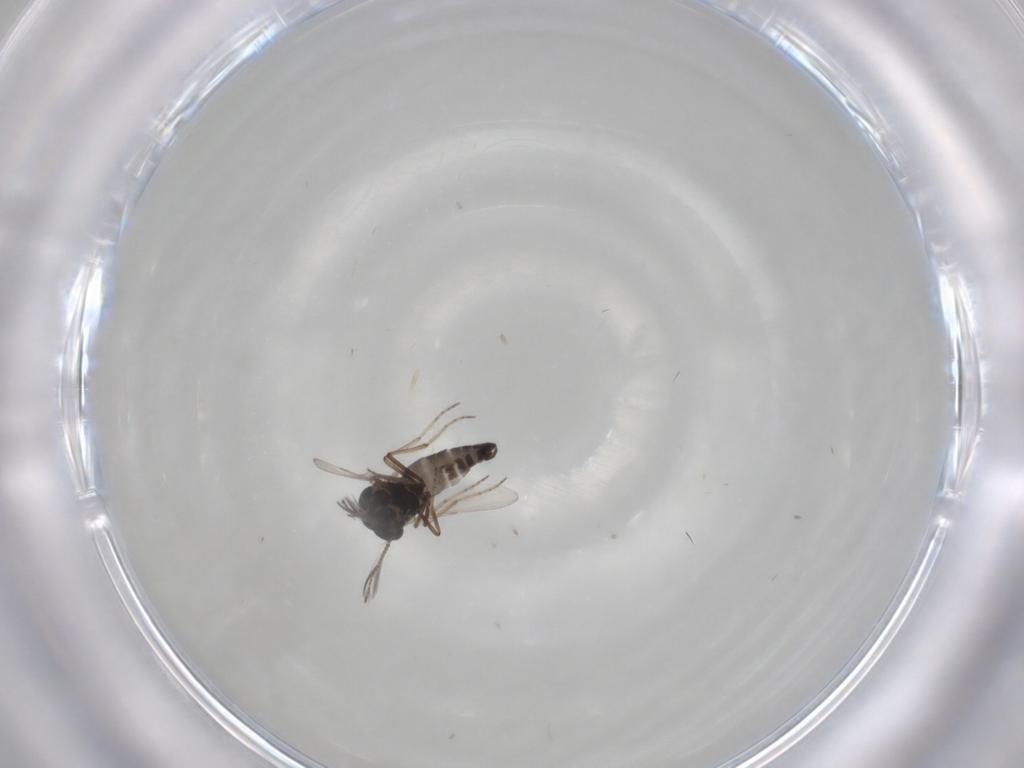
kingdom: Animalia
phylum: Arthropoda
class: Insecta
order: Diptera
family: Ceratopogonidae
